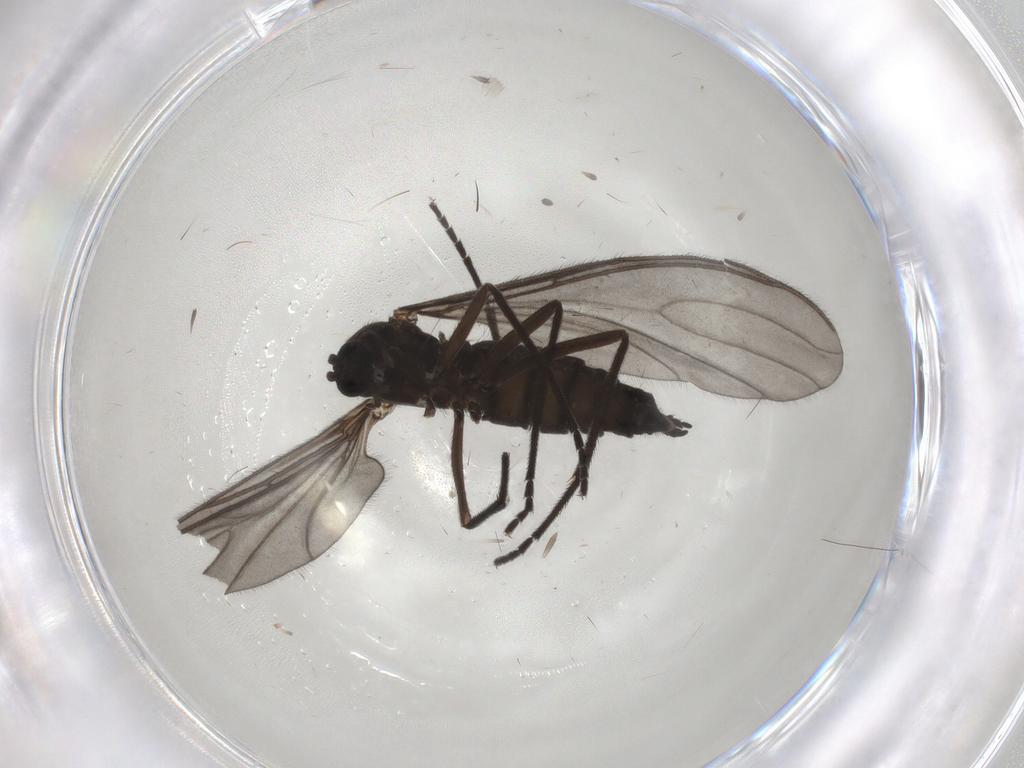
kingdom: Animalia
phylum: Arthropoda
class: Insecta
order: Diptera
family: Sciaridae
